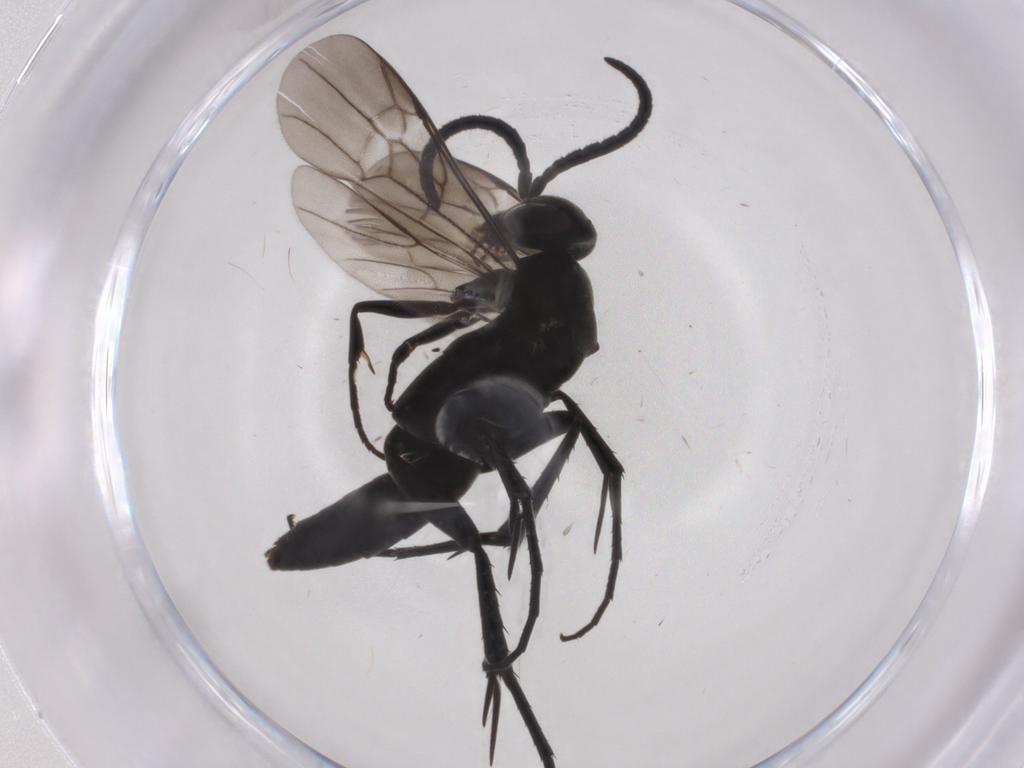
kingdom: Animalia
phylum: Arthropoda
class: Insecta
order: Hymenoptera
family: Pompilidae
